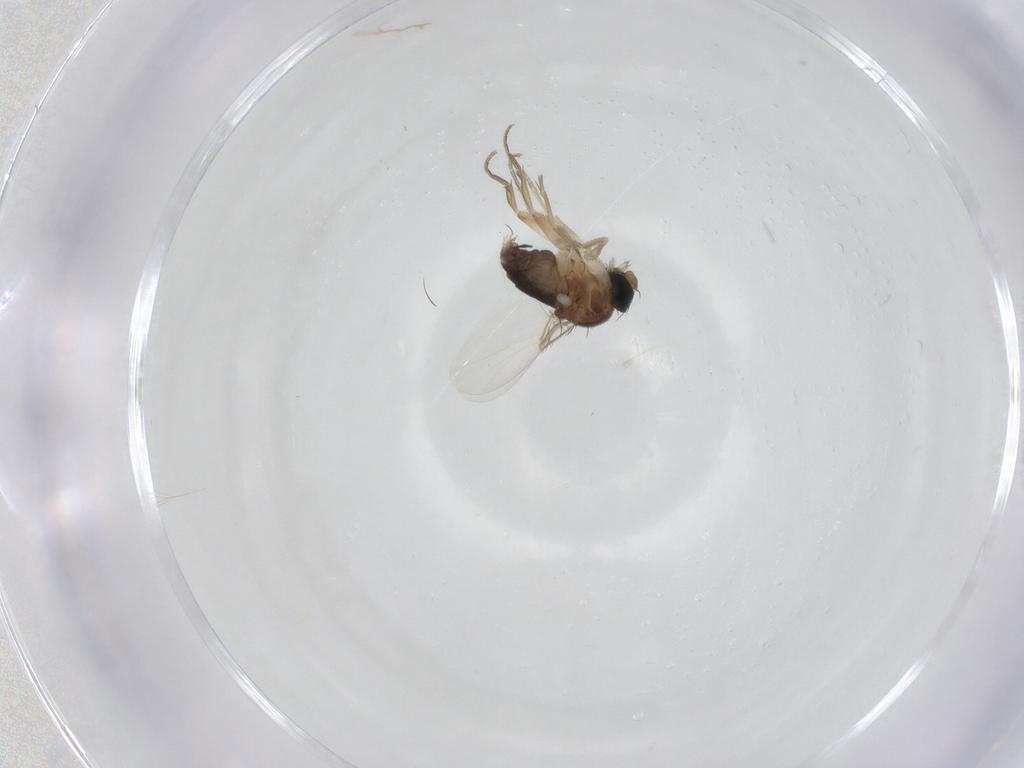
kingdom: Animalia
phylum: Arthropoda
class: Insecta
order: Diptera
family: Phoridae
